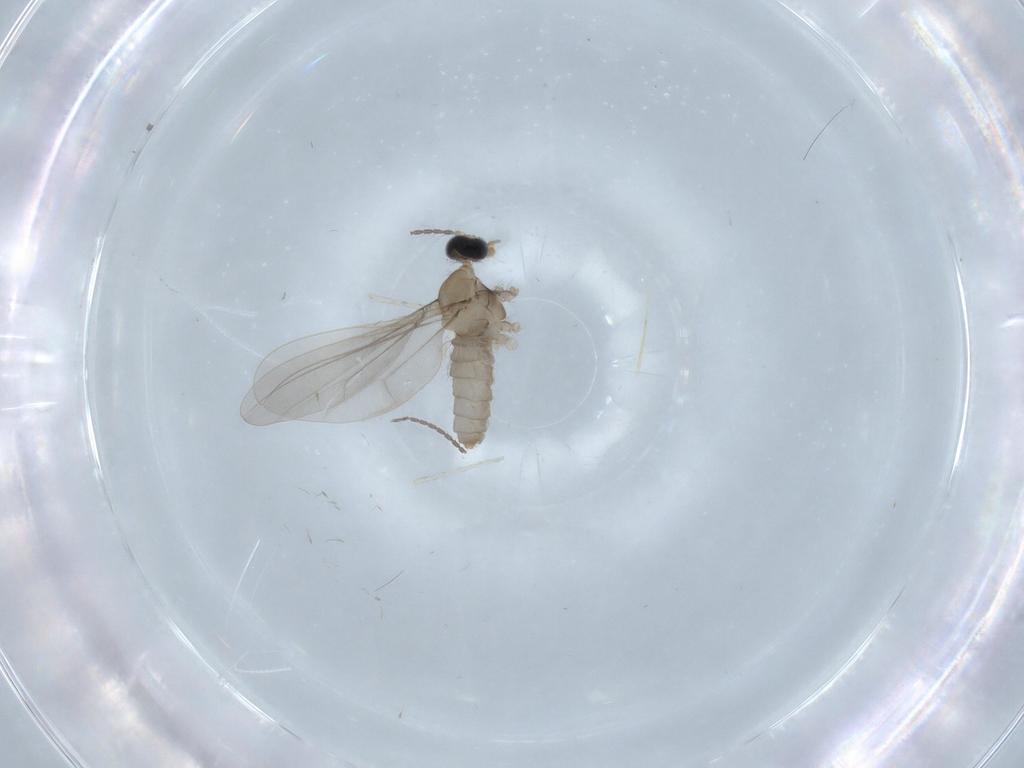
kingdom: Animalia
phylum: Arthropoda
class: Insecta
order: Diptera
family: Cecidomyiidae
